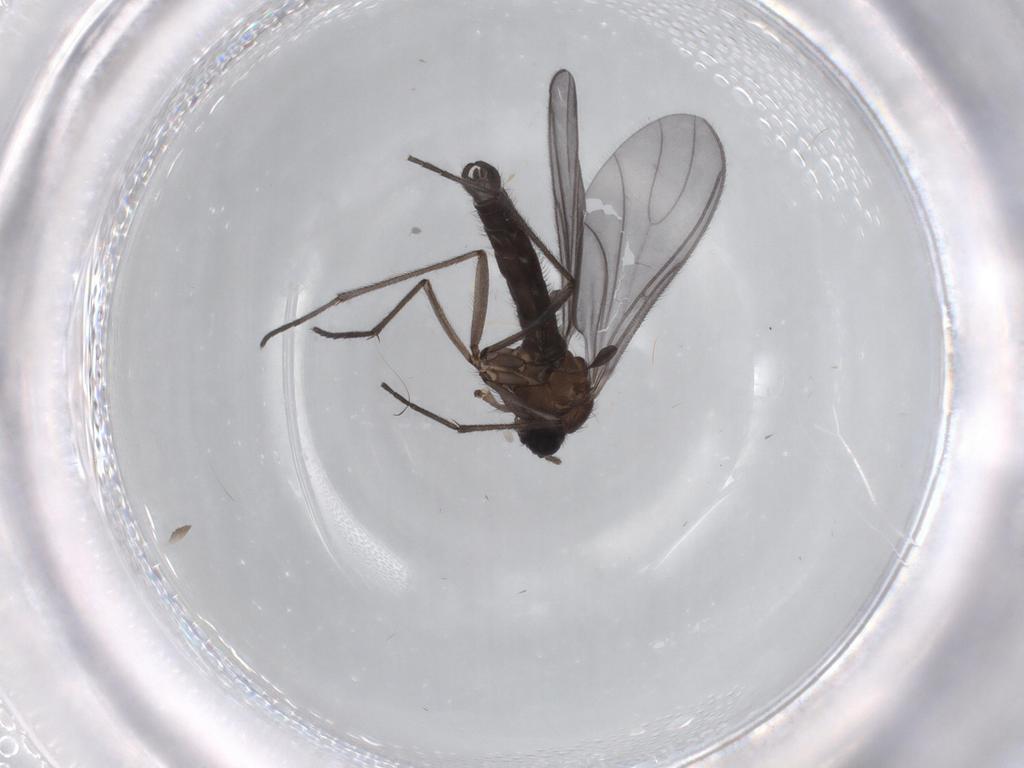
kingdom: Animalia
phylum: Arthropoda
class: Insecta
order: Diptera
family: Sciaridae
